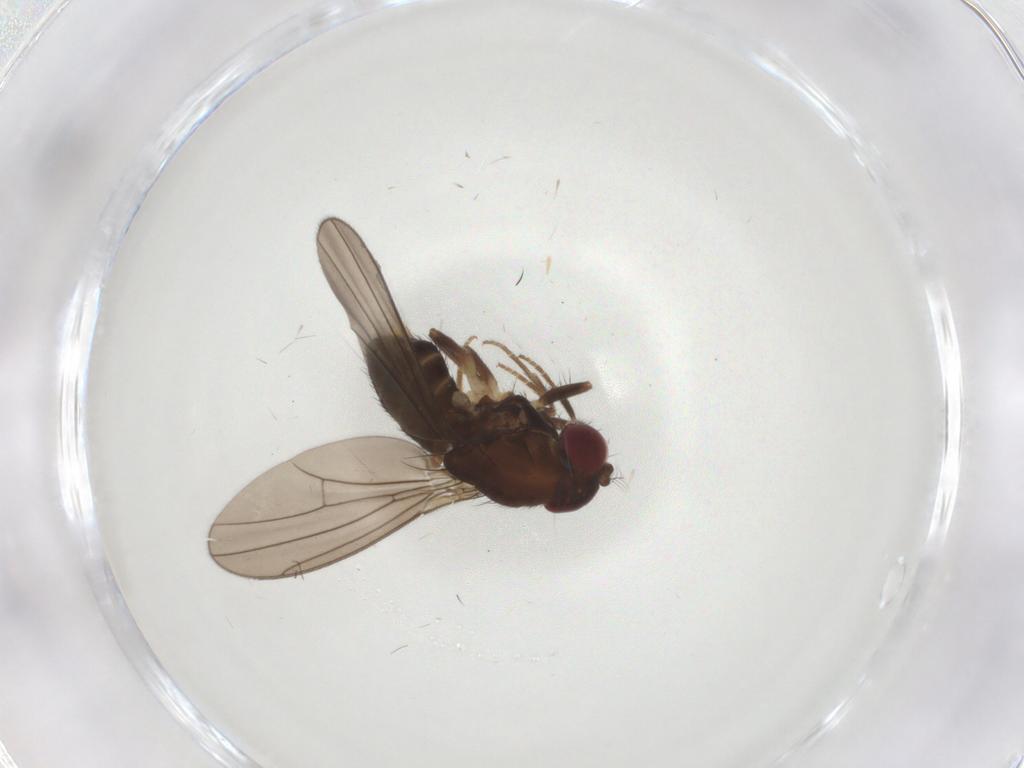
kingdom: Animalia
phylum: Arthropoda
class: Insecta
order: Diptera
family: Drosophilidae
